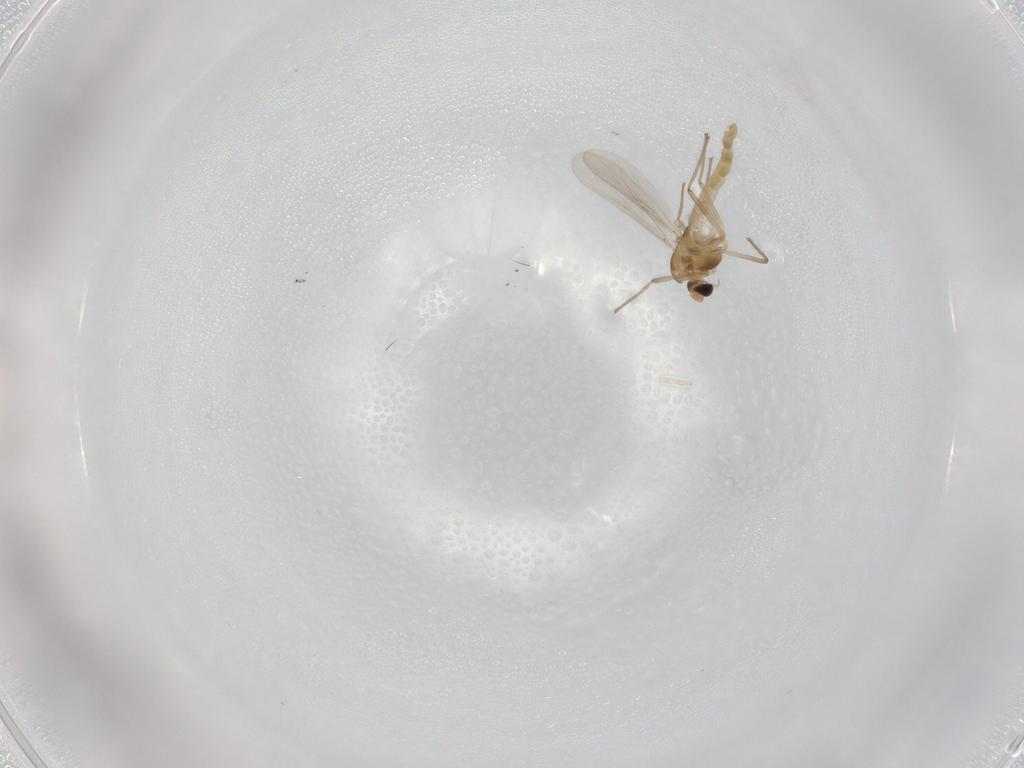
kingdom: Animalia
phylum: Arthropoda
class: Insecta
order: Diptera
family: Chironomidae
